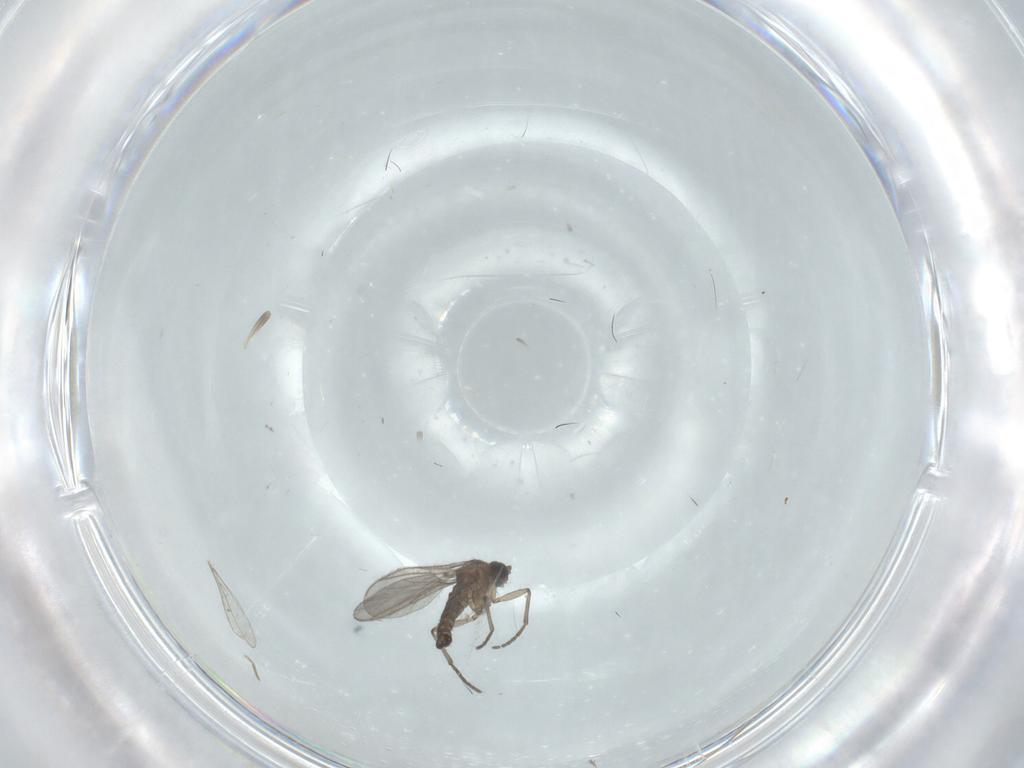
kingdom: Animalia
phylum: Arthropoda
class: Insecta
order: Diptera
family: Sciaridae
